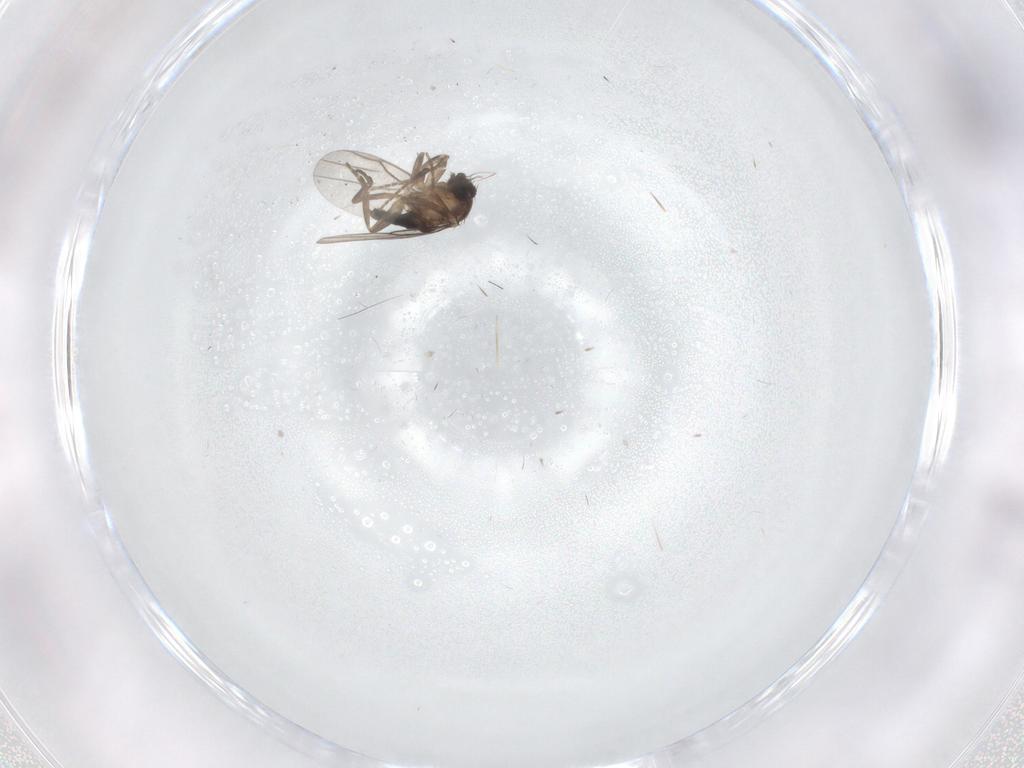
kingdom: Animalia
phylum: Arthropoda
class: Insecta
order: Diptera
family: Chironomidae
